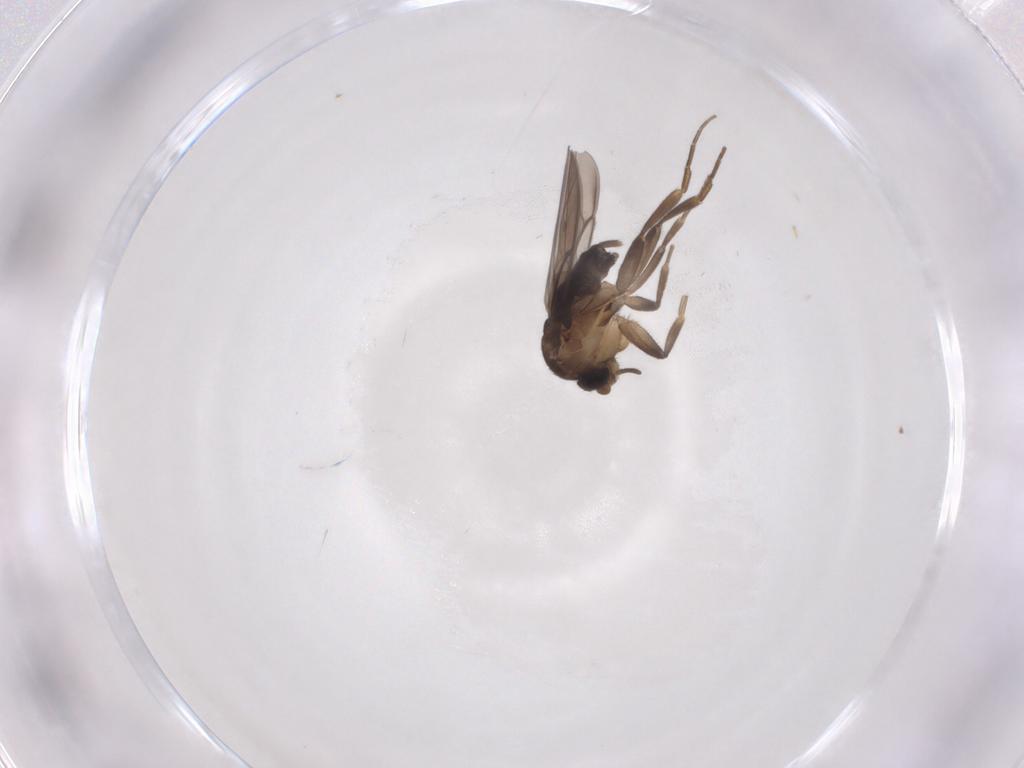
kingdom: Animalia
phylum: Arthropoda
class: Insecta
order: Diptera
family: Phoridae
